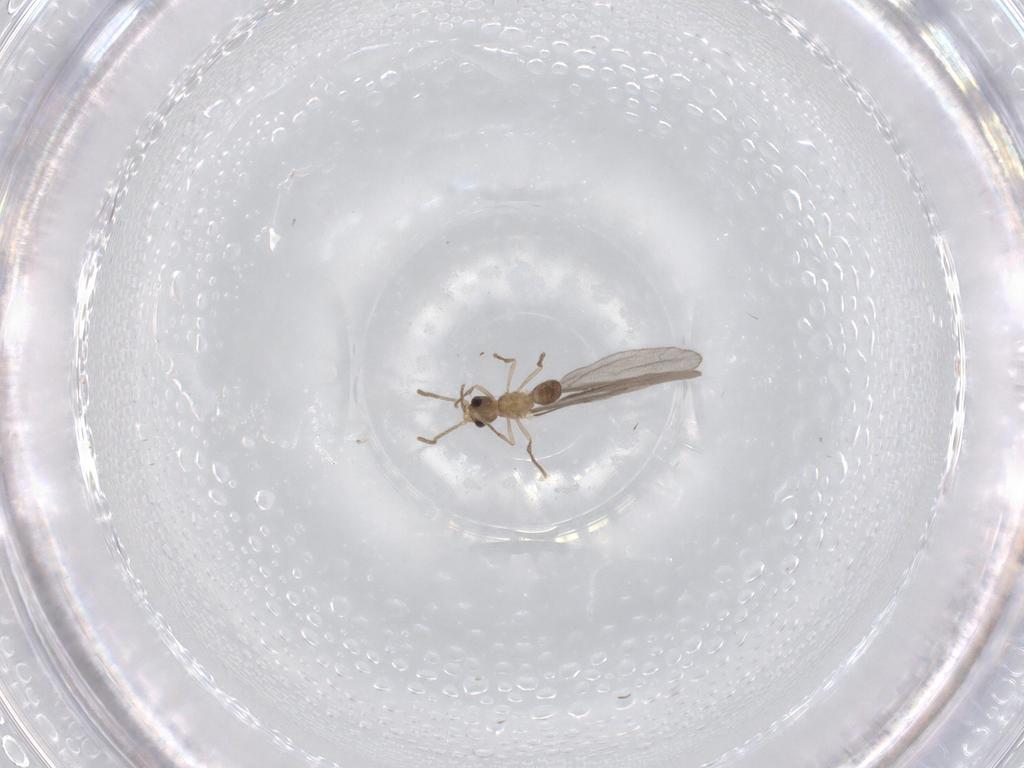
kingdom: Animalia
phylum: Arthropoda
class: Insecta
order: Hymenoptera
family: Formicidae
